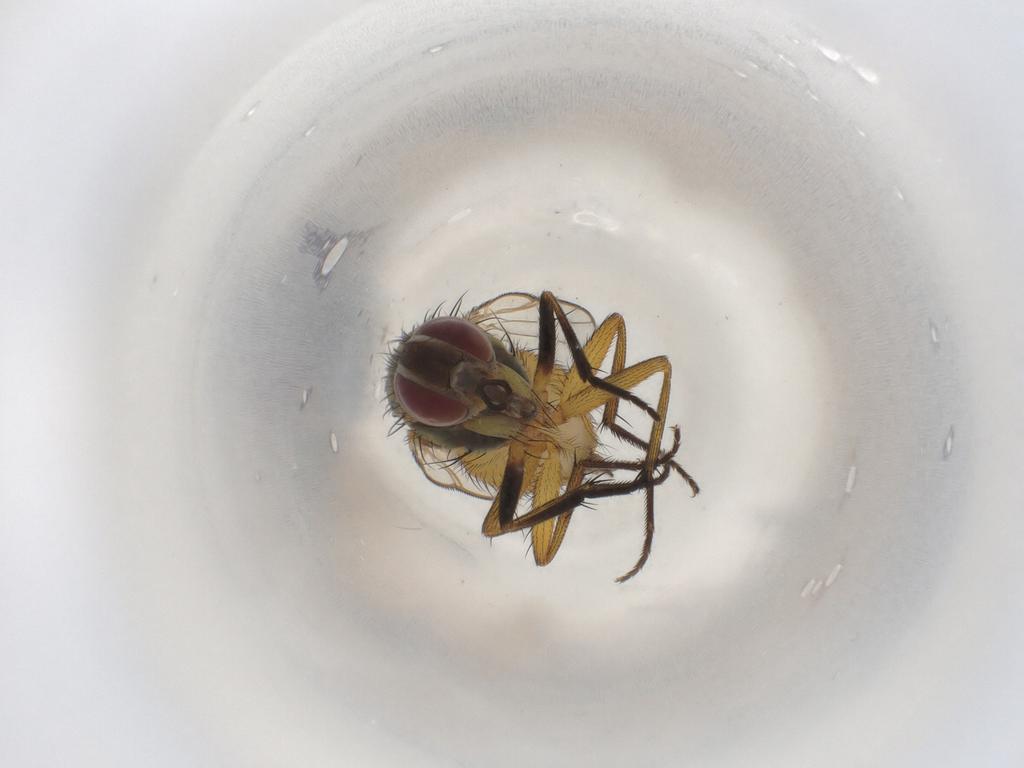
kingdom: Animalia
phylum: Arthropoda
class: Insecta
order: Diptera
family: Muscidae
